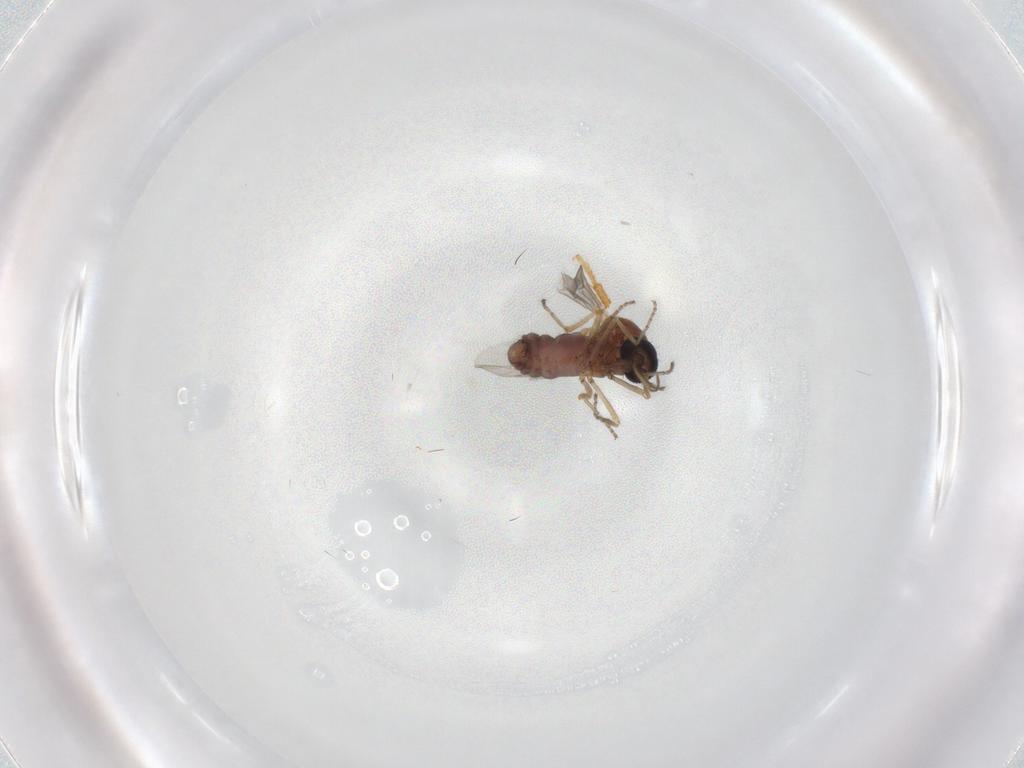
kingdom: Animalia
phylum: Arthropoda
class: Insecta
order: Diptera
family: Ceratopogonidae
